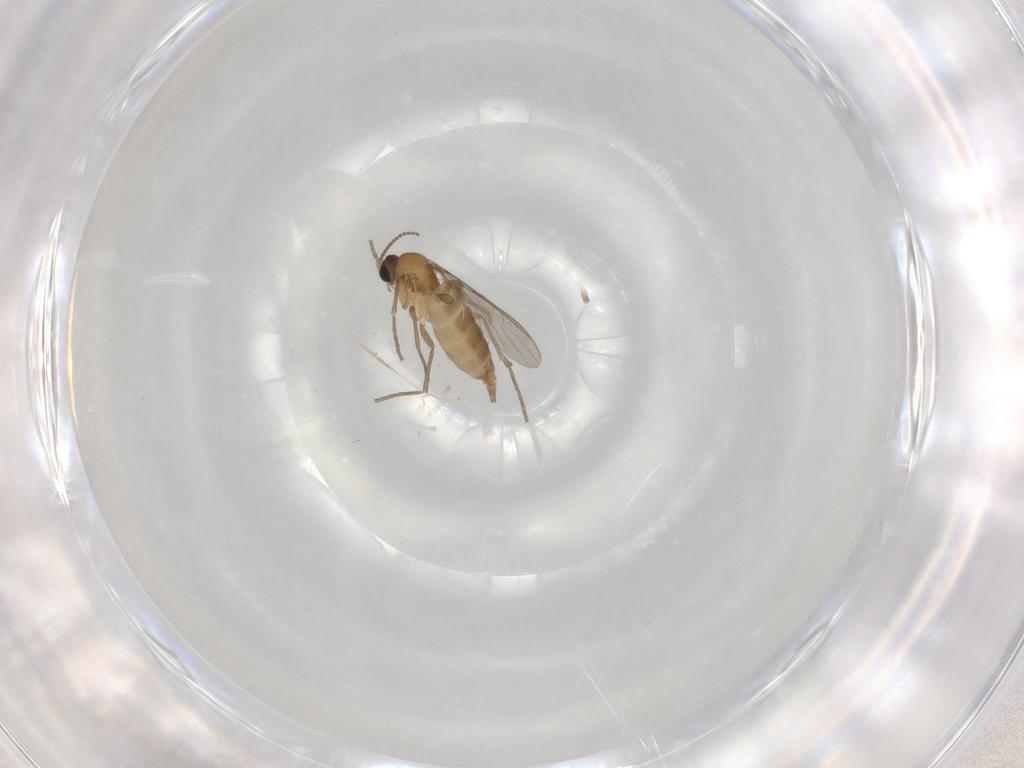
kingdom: Animalia
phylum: Arthropoda
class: Insecta
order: Diptera
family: Sciaridae
